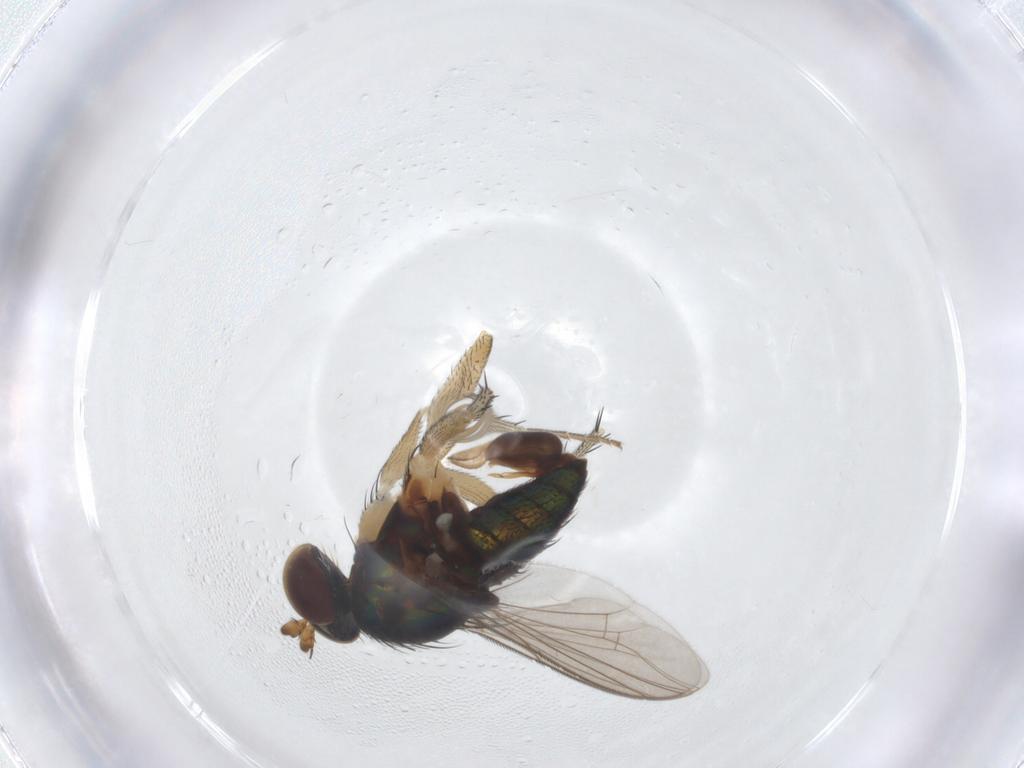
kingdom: Animalia
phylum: Arthropoda
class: Insecta
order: Diptera
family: Dolichopodidae
